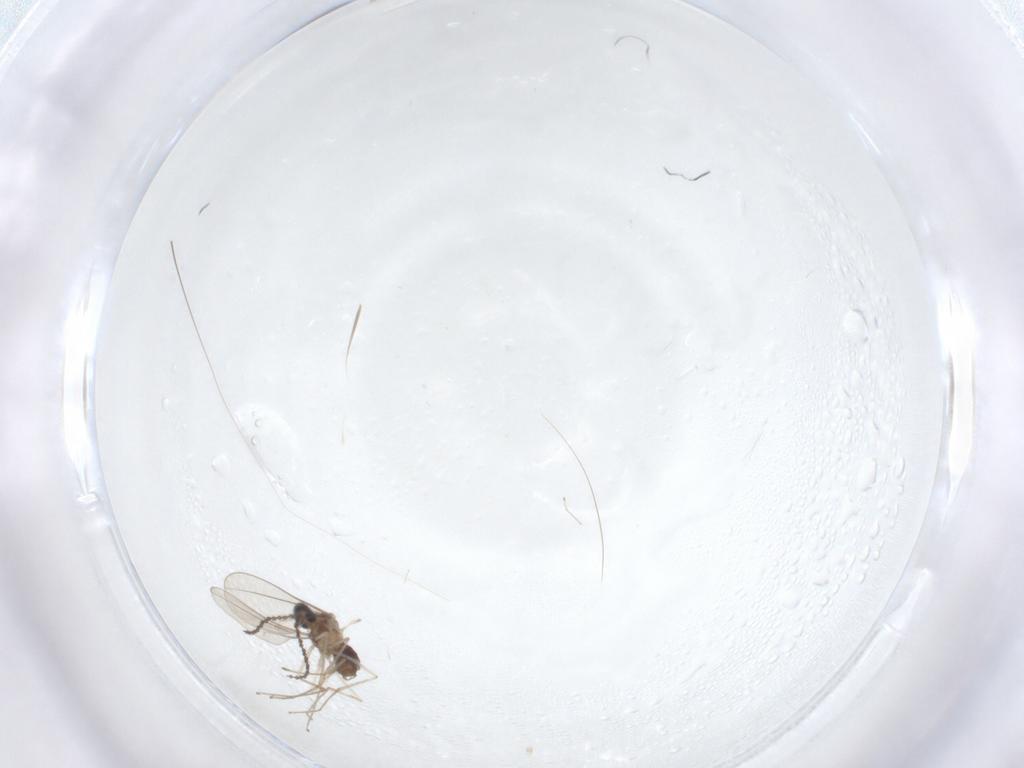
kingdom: Animalia
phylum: Arthropoda
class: Insecta
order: Diptera
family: Cecidomyiidae
